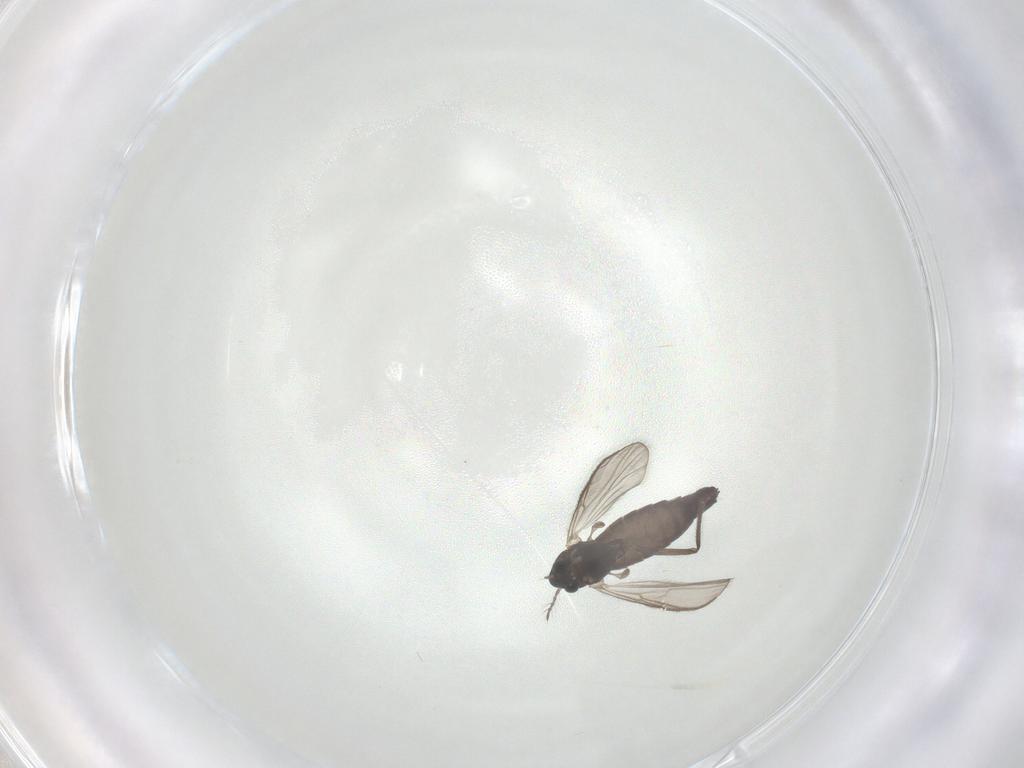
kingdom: Animalia
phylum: Arthropoda
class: Insecta
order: Diptera
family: Chironomidae
